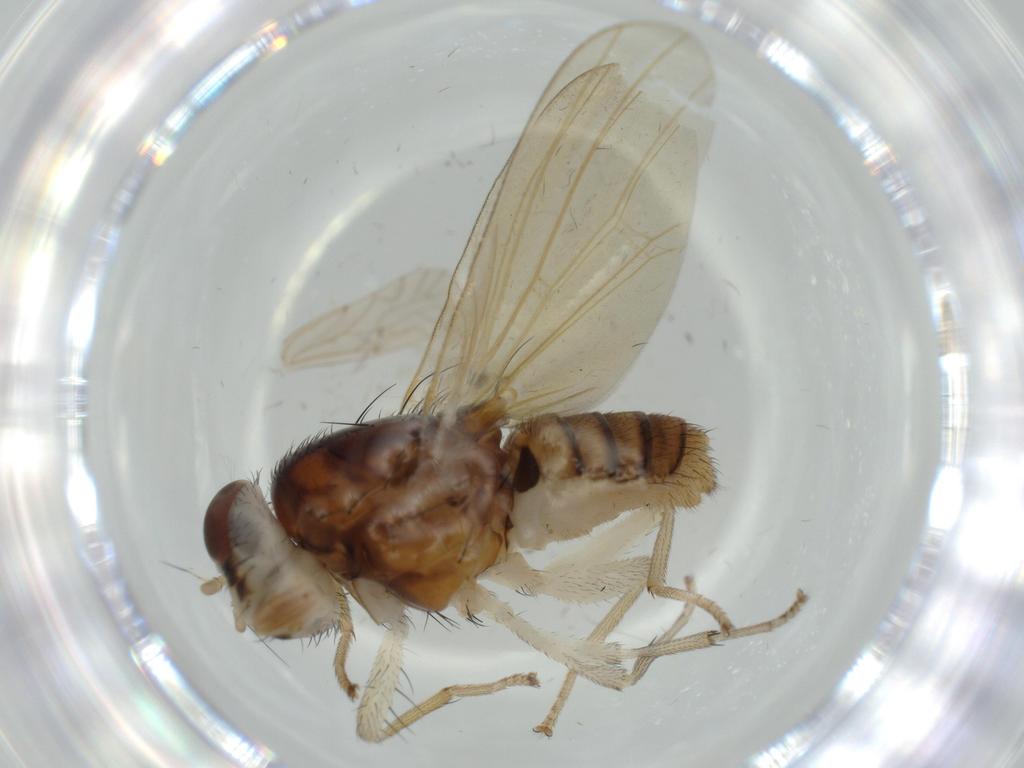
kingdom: Animalia
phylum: Arthropoda
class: Insecta
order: Diptera
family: Lauxaniidae
